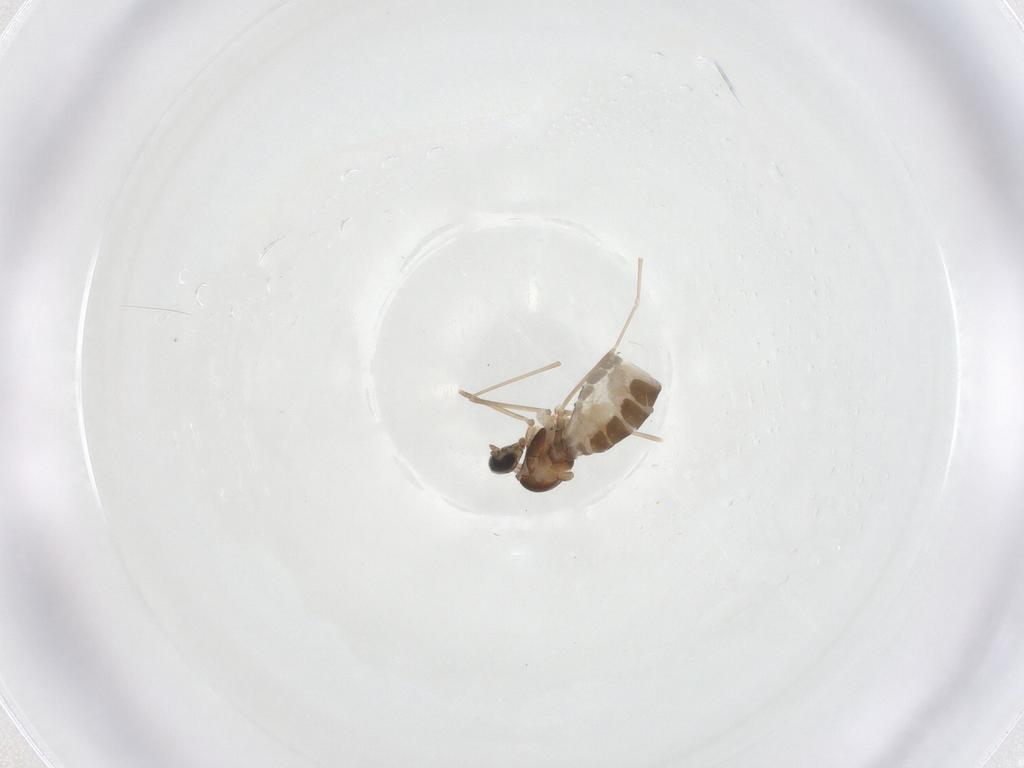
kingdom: Animalia
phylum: Arthropoda
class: Insecta
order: Diptera
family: Cecidomyiidae
